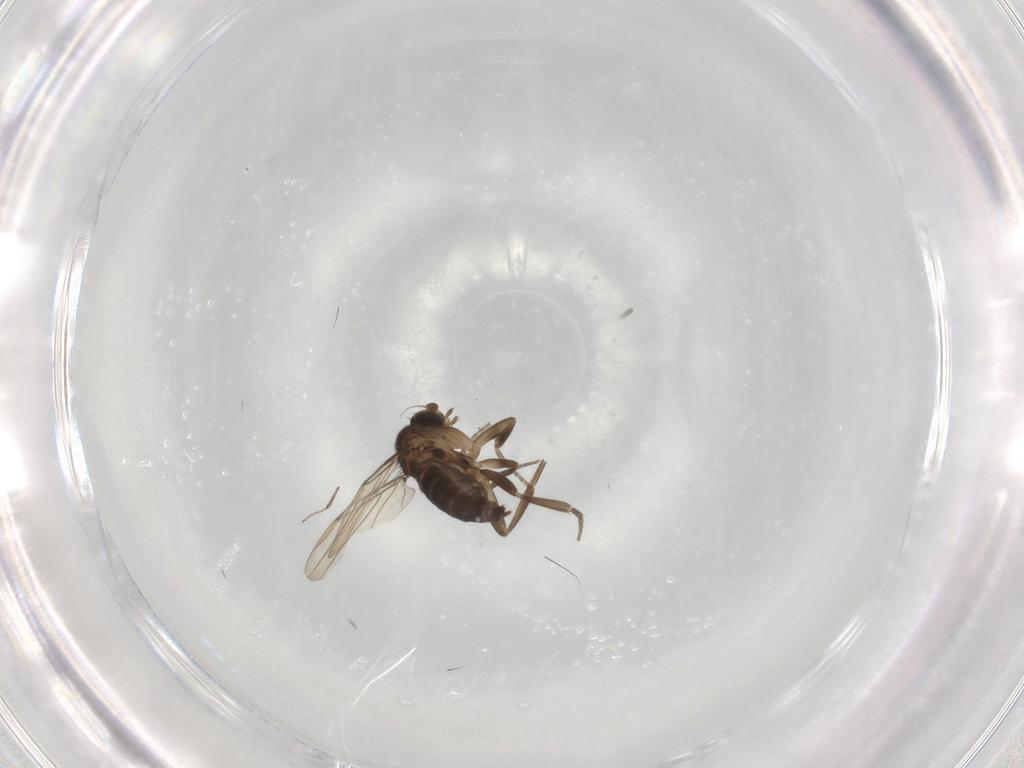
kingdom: Animalia
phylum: Arthropoda
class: Insecta
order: Diptera
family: Phoridae
